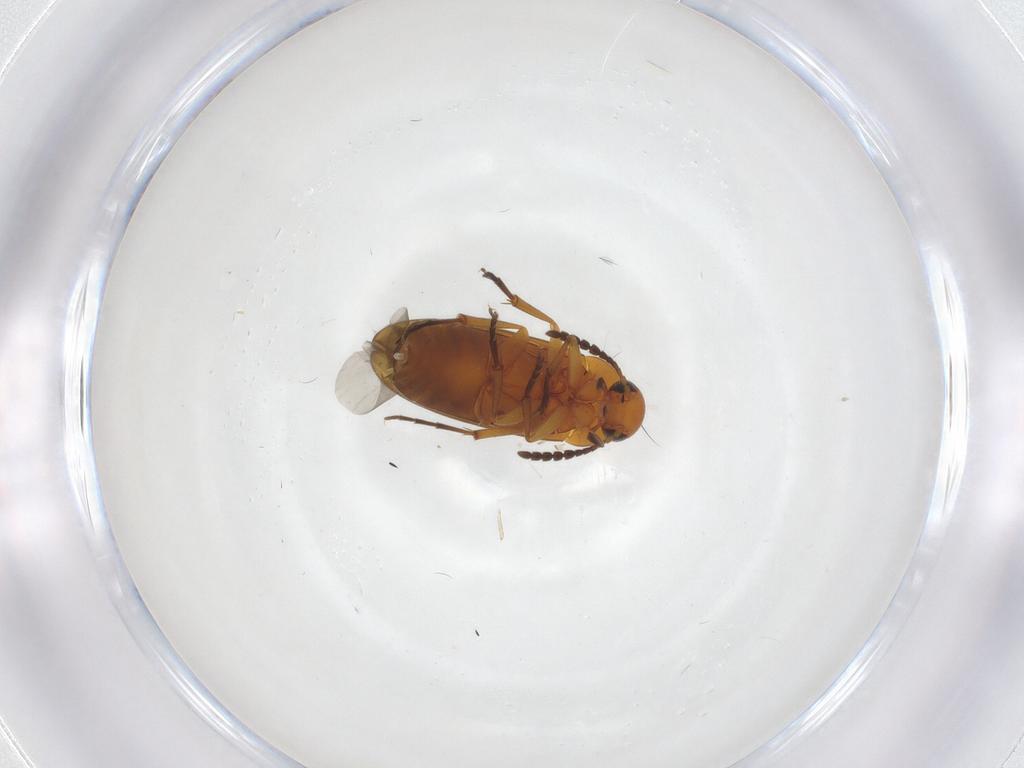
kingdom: Animalia
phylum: Arthropoda
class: Insecta
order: Coleoptera
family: Scraptiidae
